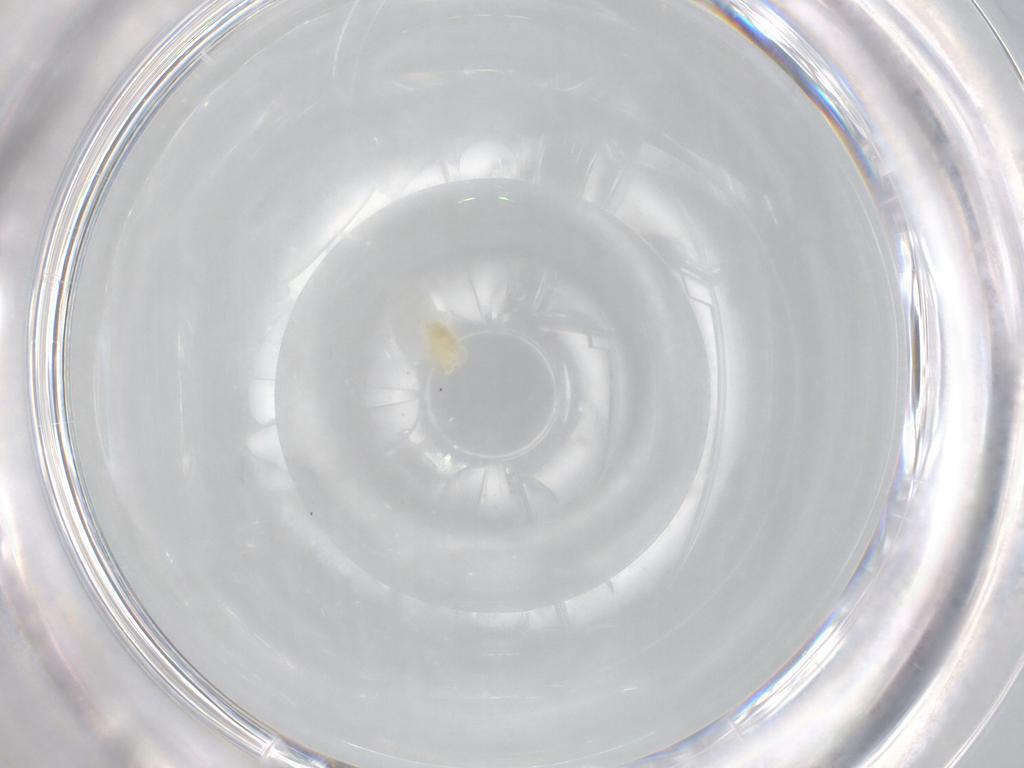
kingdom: Animalia
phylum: Arthropoda
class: Arachnida
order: Trombidiformes
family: Eupodidae
